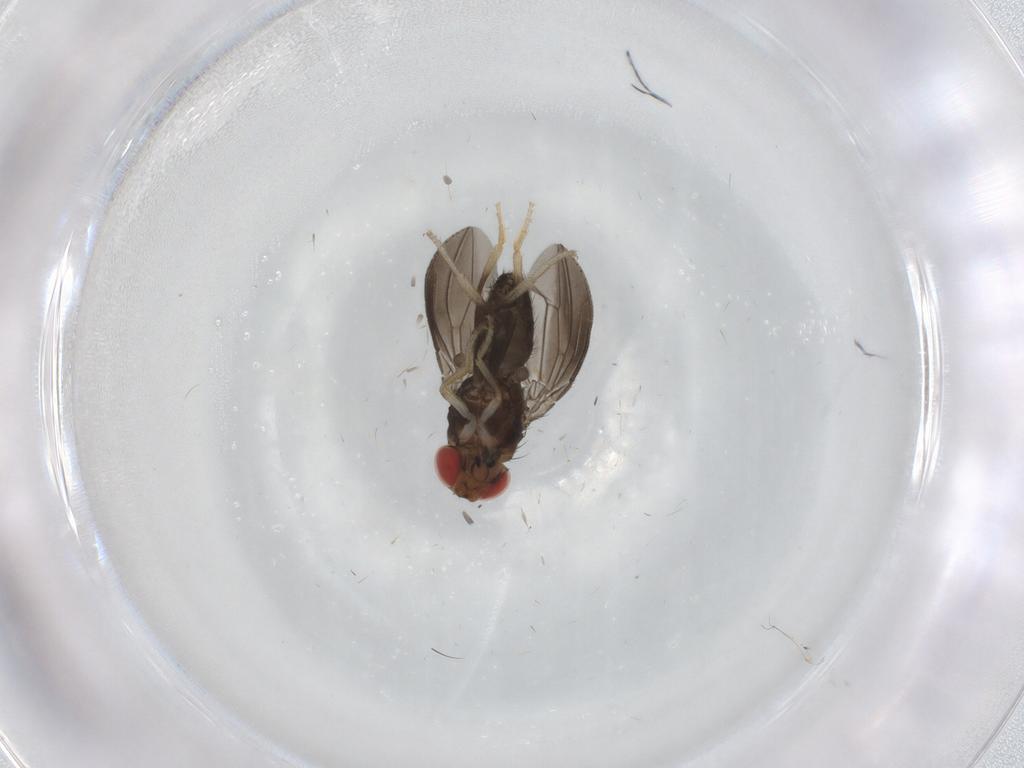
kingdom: Animalia
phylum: Arthropoda
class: Insecta
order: Diptera
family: Drosophilidae
